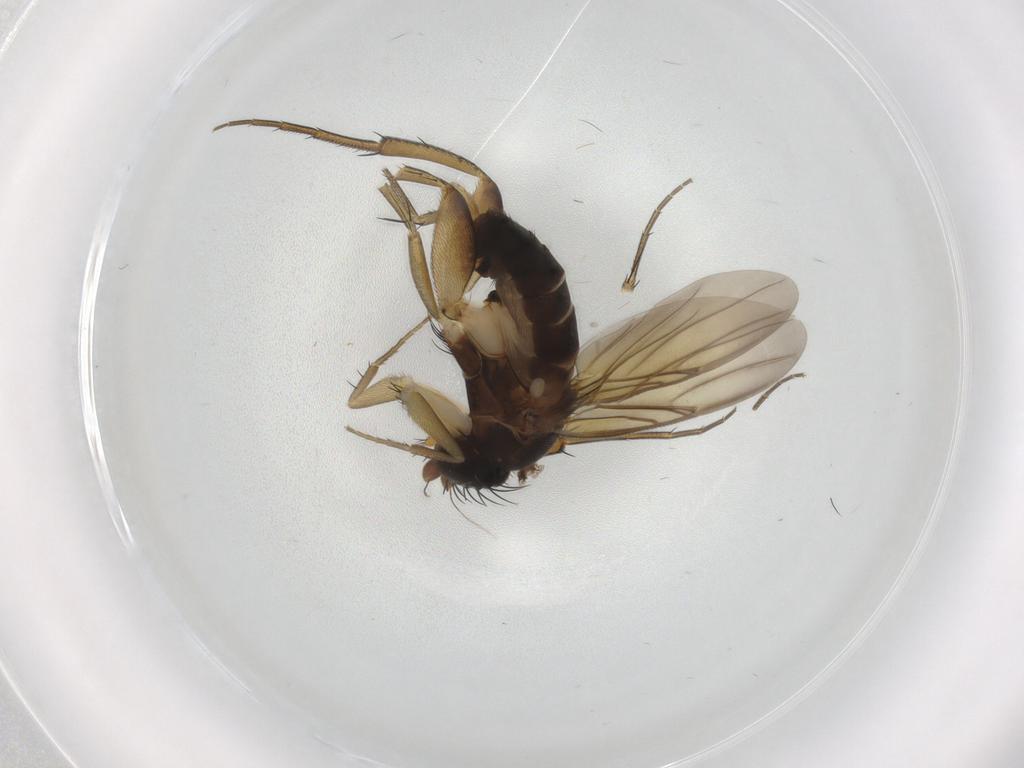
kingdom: Animalia
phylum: Arthropoda
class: Insecta
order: Diptera
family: Phoridae
